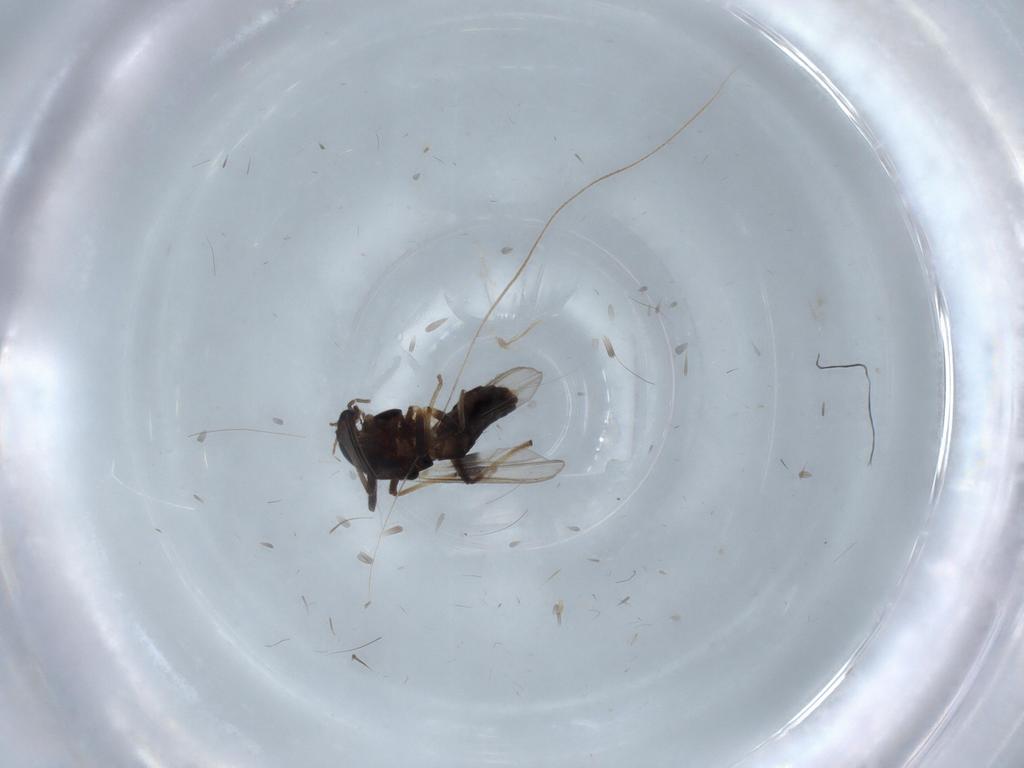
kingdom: Animalia
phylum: Arthropoda
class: Insecta
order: Diptera
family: Chironomidae
